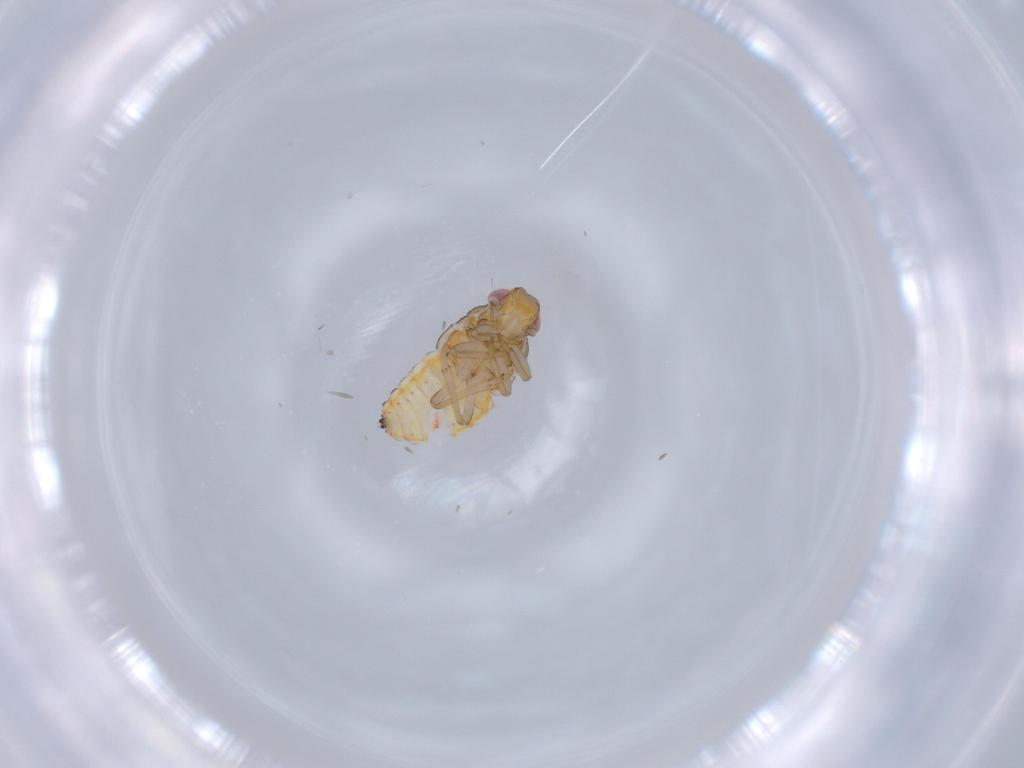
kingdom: Animalia
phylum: Arthropoda
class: Insecta
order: Hemiptera
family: Issidae
